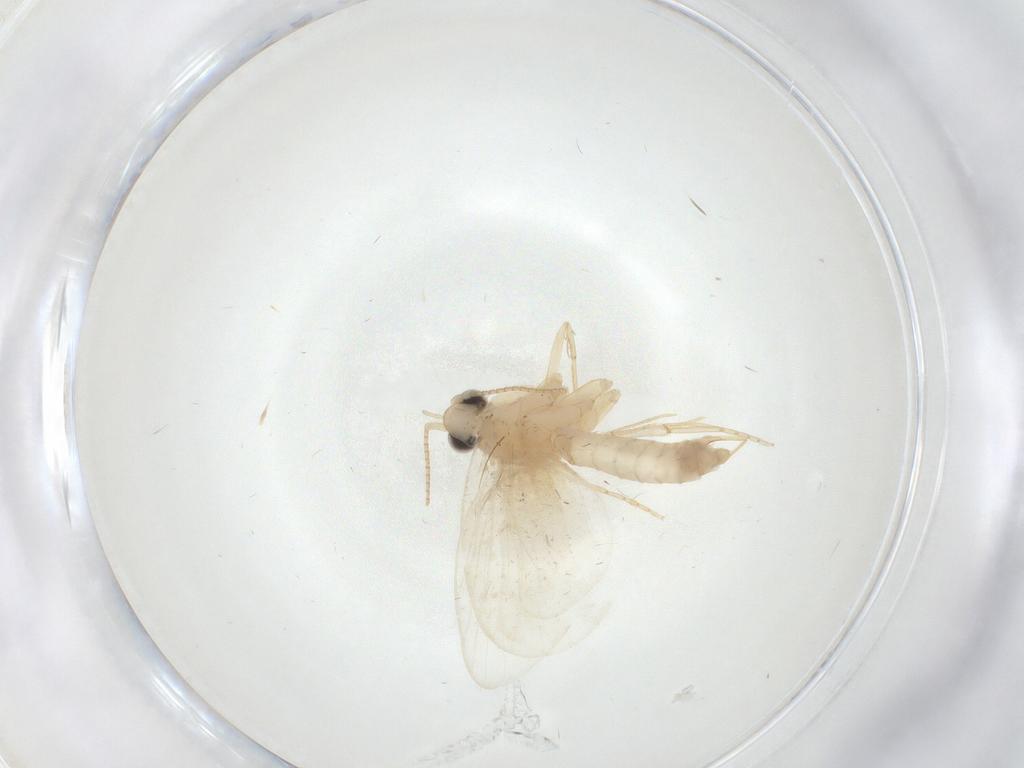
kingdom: Animalia
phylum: Arthropoda
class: Insecta
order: Lepidoptera
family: Psychidae
